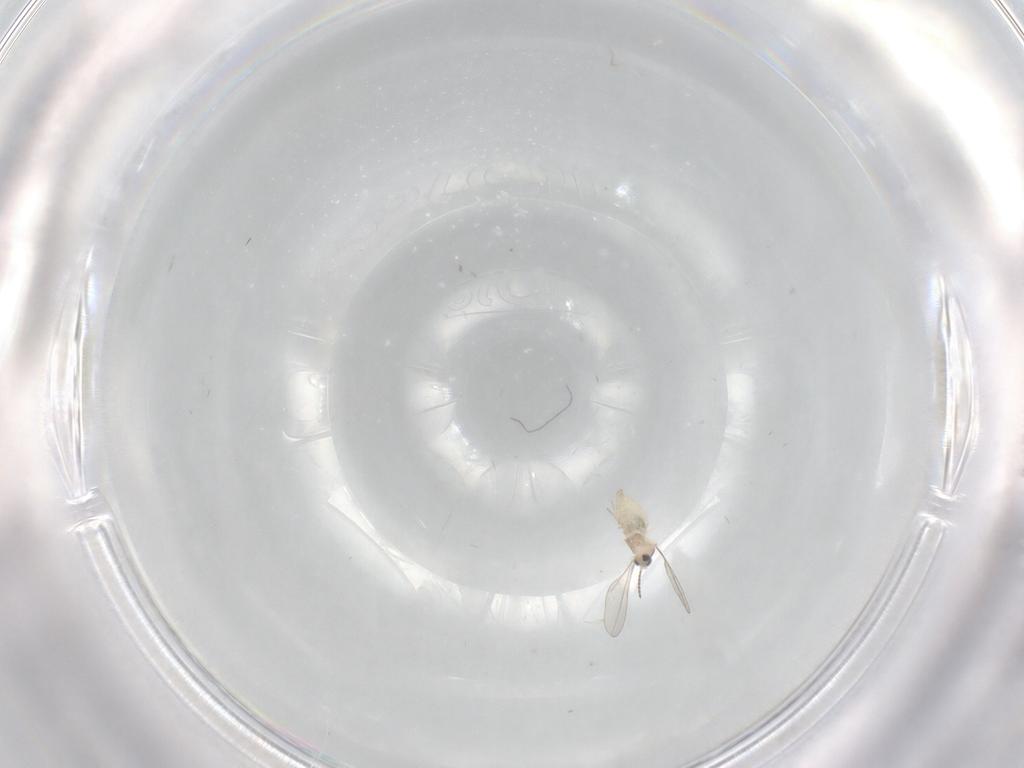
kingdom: Animalia
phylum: Arthropoda
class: Insecta
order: Diptera
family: Cecidomyiidae
